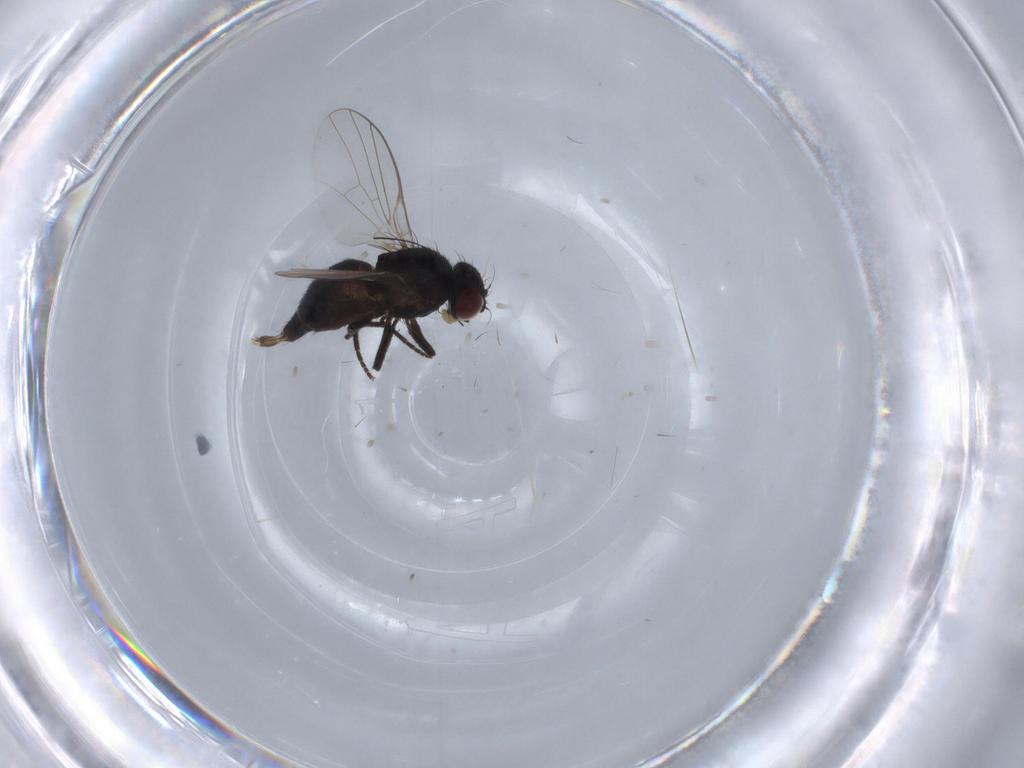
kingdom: Animalia
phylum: Arthropoda
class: Insecta
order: Diptera
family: Agromyzidae
